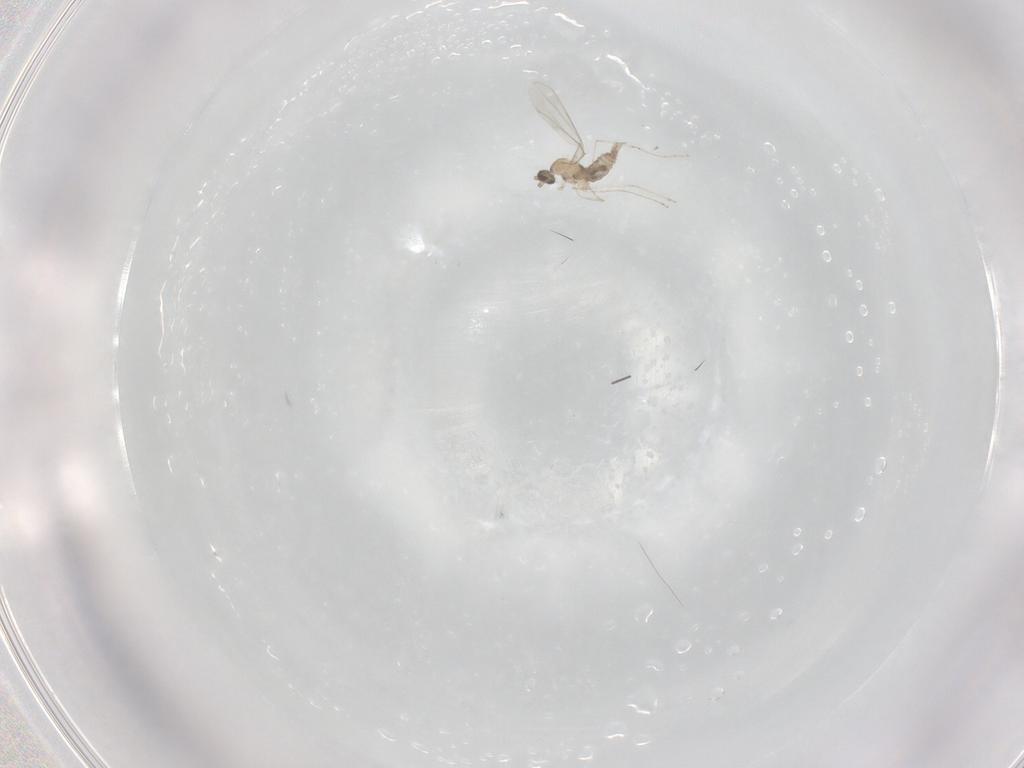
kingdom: Animalia
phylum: Arthropoda
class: Insecta
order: Diptera
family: Cecidomyiidae
